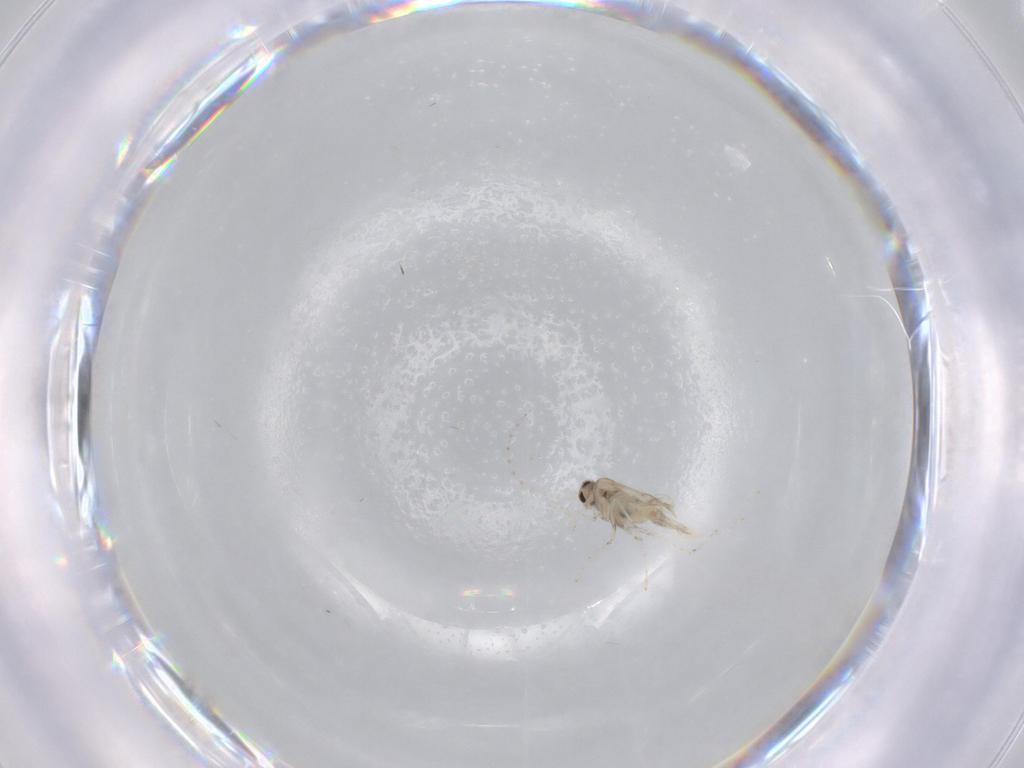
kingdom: Animalia
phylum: Arthropoda
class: Insecta
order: Diptera
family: Cecidomyiidae
